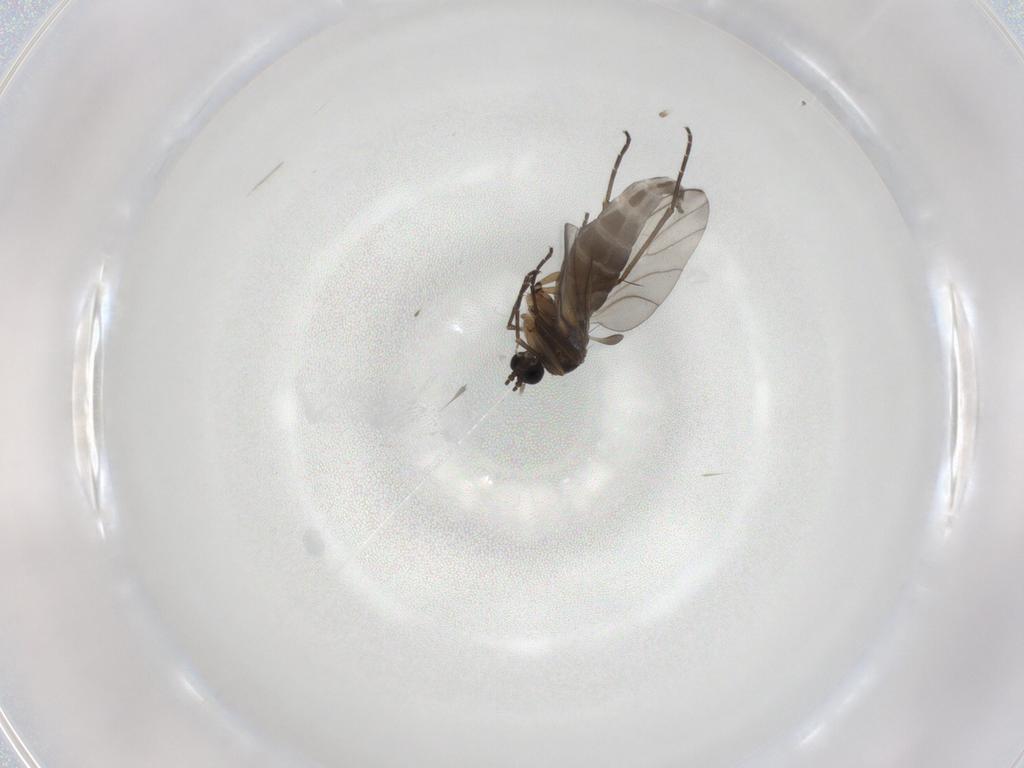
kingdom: Animalia
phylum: Arthropoda
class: Insecta
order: Diptera
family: Sciaridae
